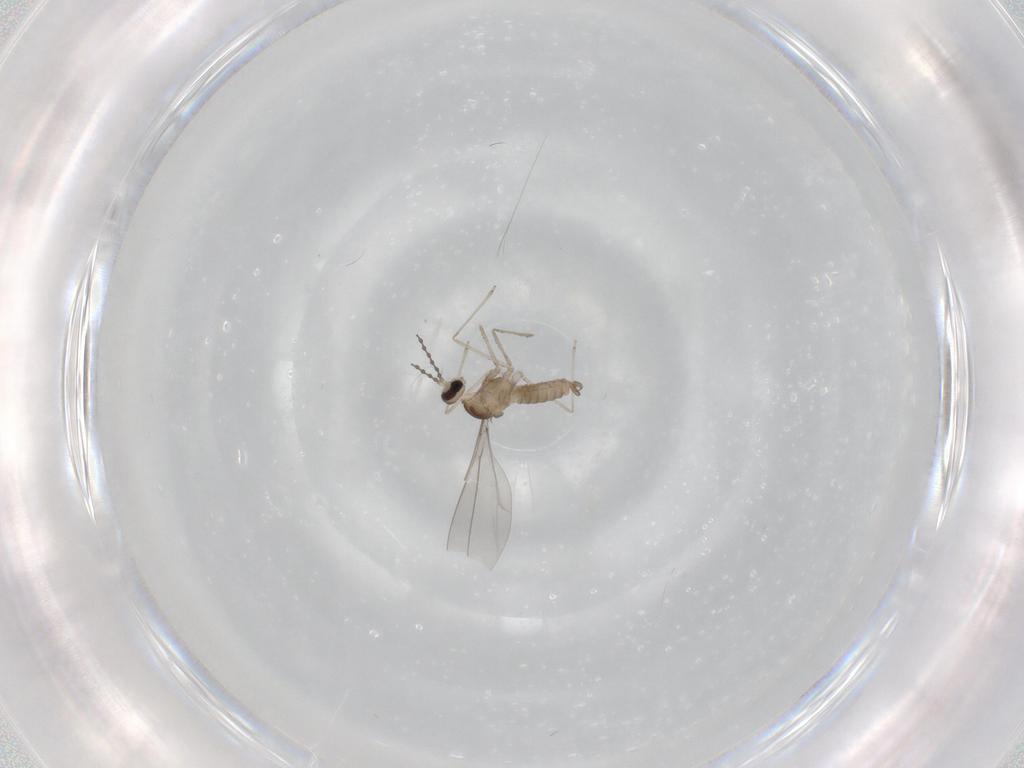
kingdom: Animalia
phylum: Arthropoda
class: Insecta
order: Diptera
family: Cecidomyiidae
